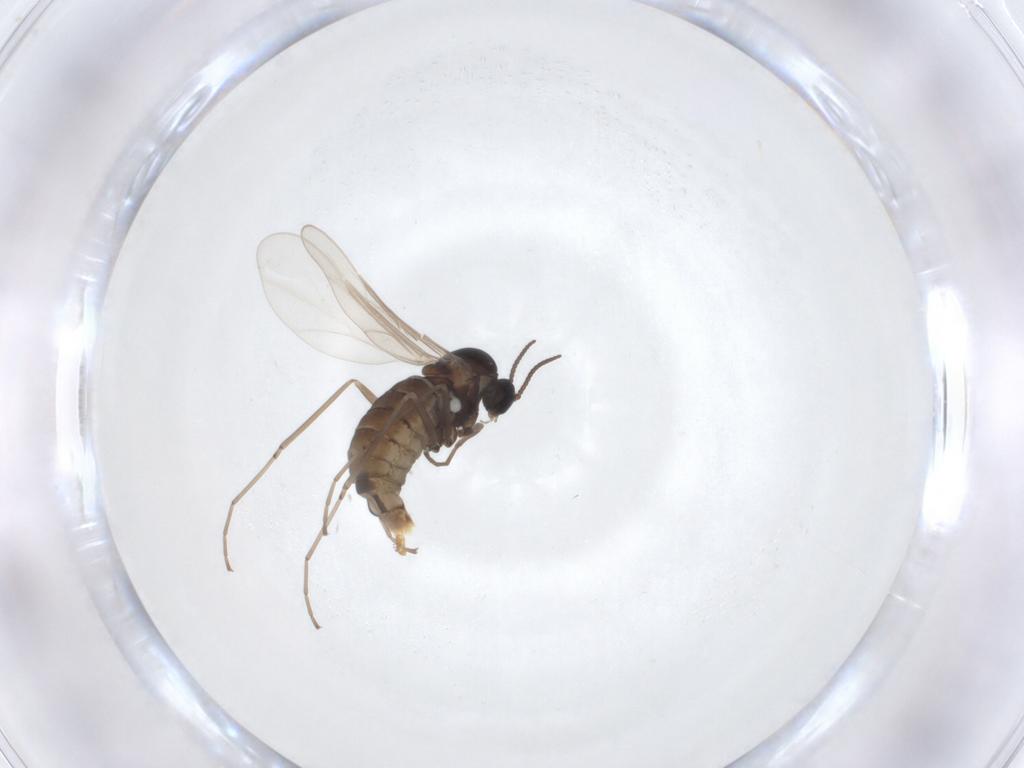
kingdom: Animalia
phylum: Arthropoda
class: Insecta
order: Diptera
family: Cecidomyiidae
